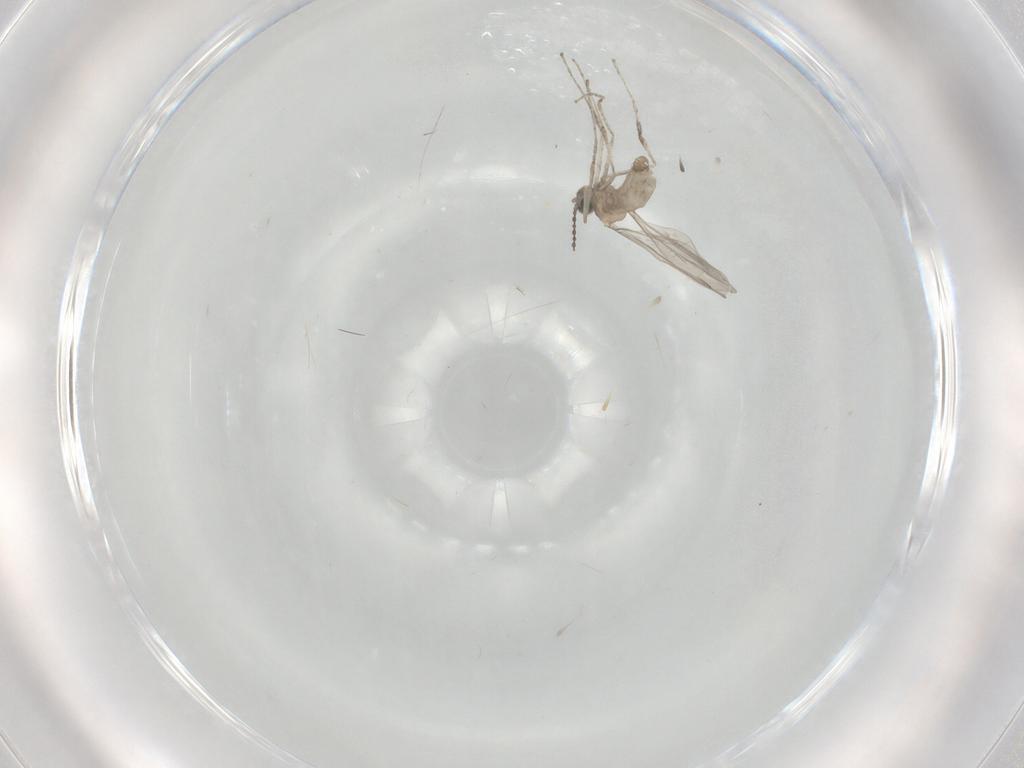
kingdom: Animalia
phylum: Arthropoda
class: Insecta
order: Diptera
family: Ceratopogonidae
